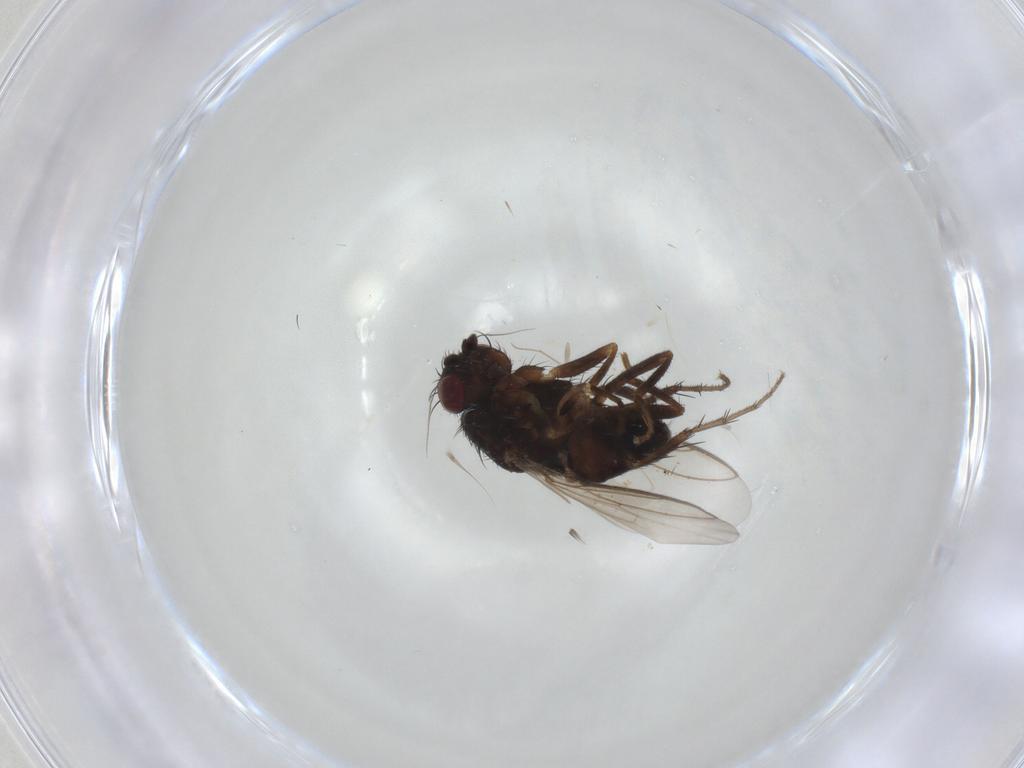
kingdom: Animalia
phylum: Arthropoda
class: Insecta
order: Diptera
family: Sphaeroceridae
